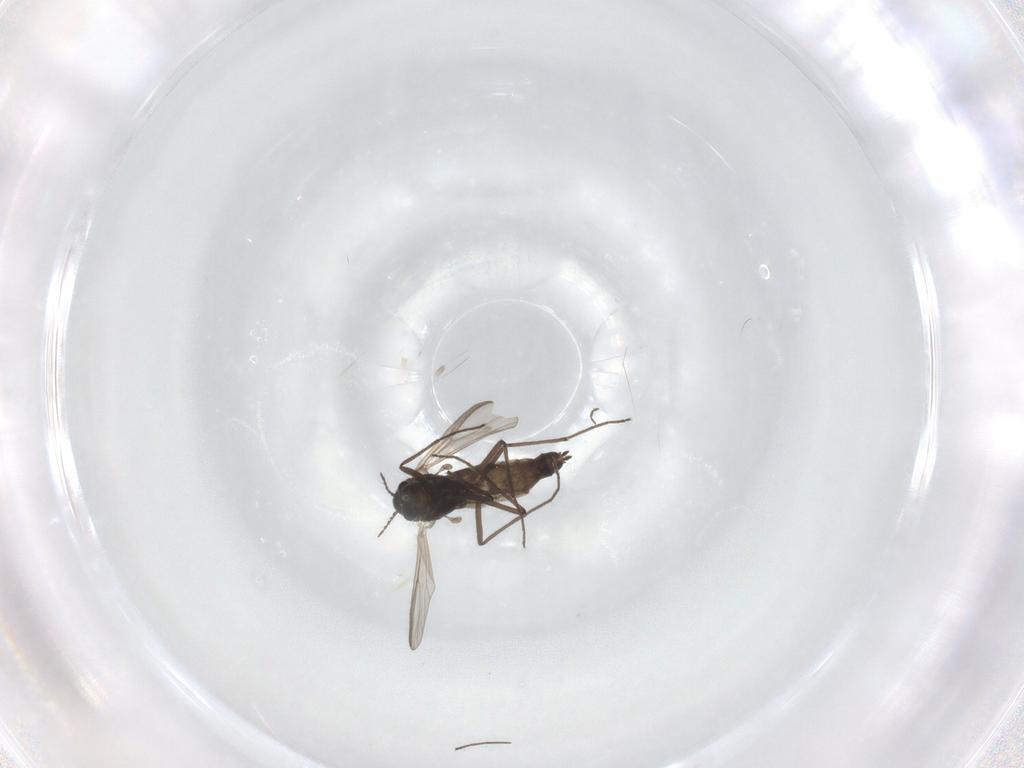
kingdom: Animalia
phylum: Arthropoda
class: Insecta
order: Diptera
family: Chironomidae
